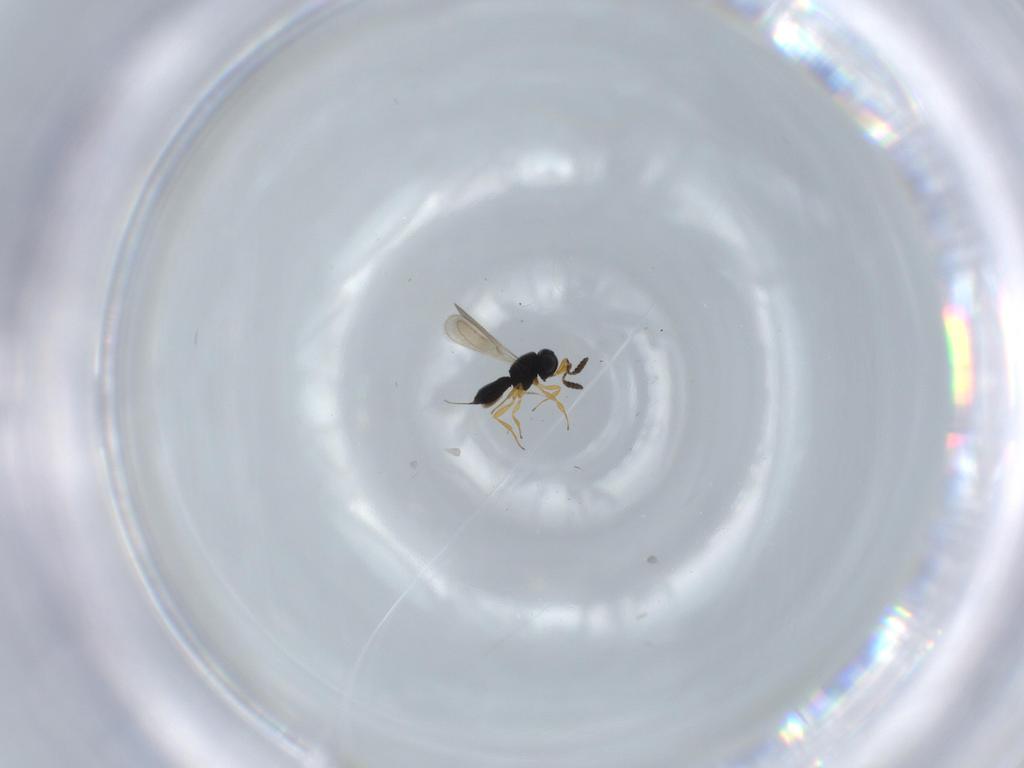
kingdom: Animalia
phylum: Arthropoda
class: Insecta
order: Hymenoptera
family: Scelionidae
